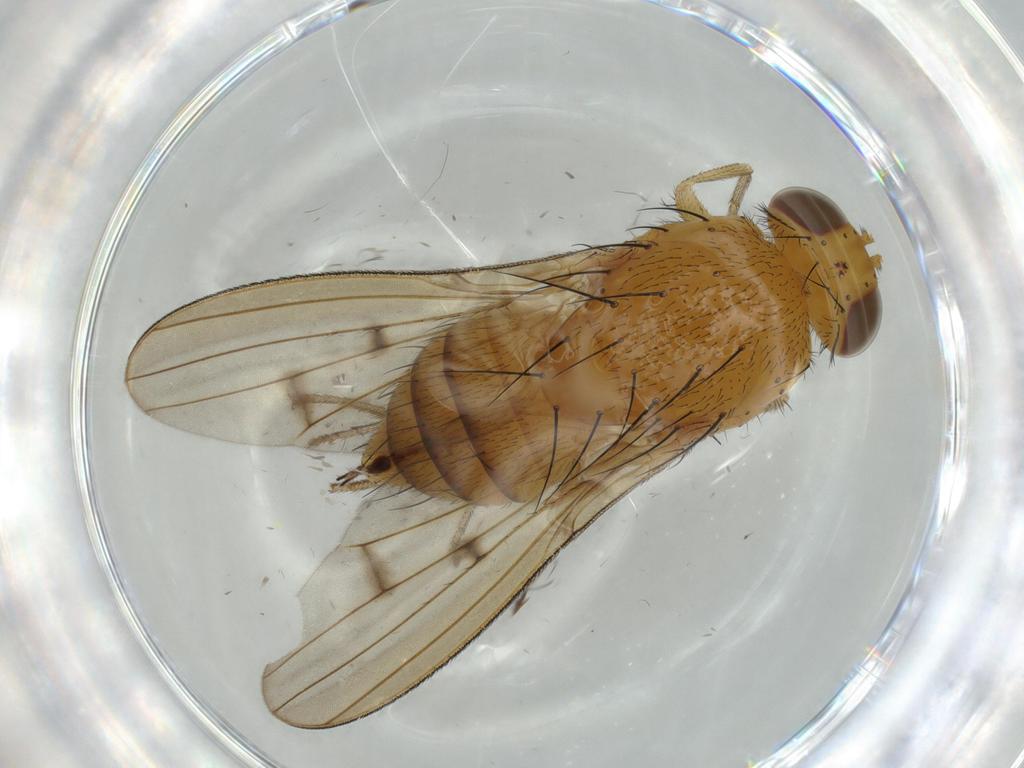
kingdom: Animalia
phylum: Arthropoda
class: Insecta
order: Diptera
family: Lauxaniidae
